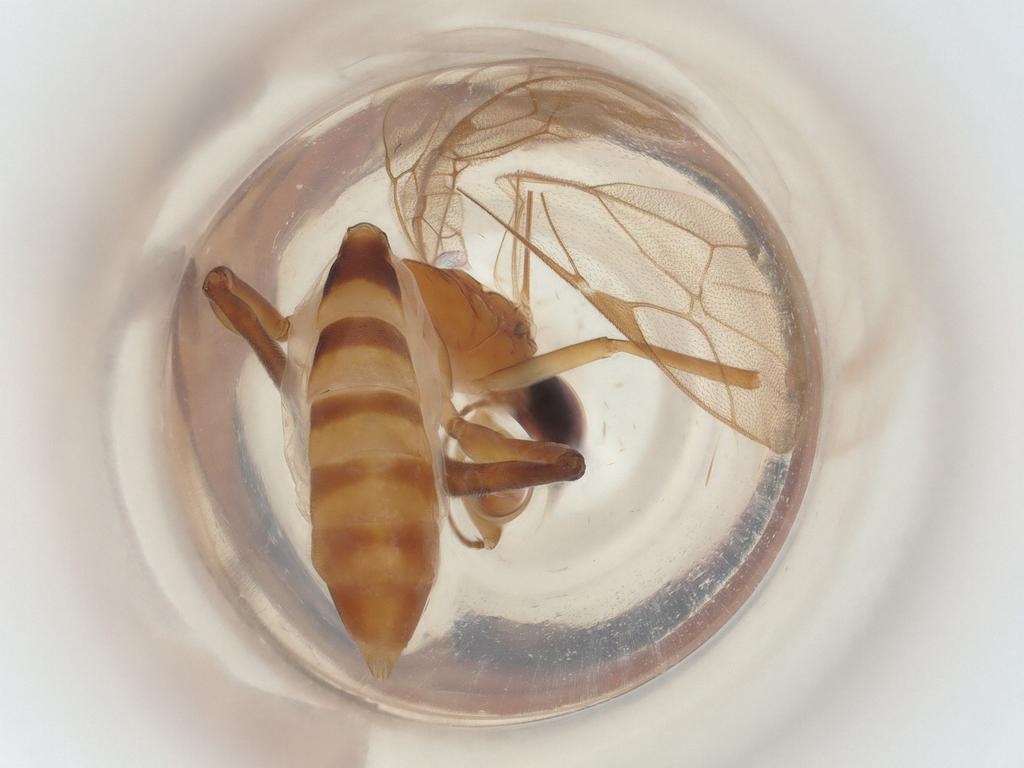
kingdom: Animalia
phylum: Arthropoda
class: Insecta
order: Hymenoptera
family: Ichneumonidae
